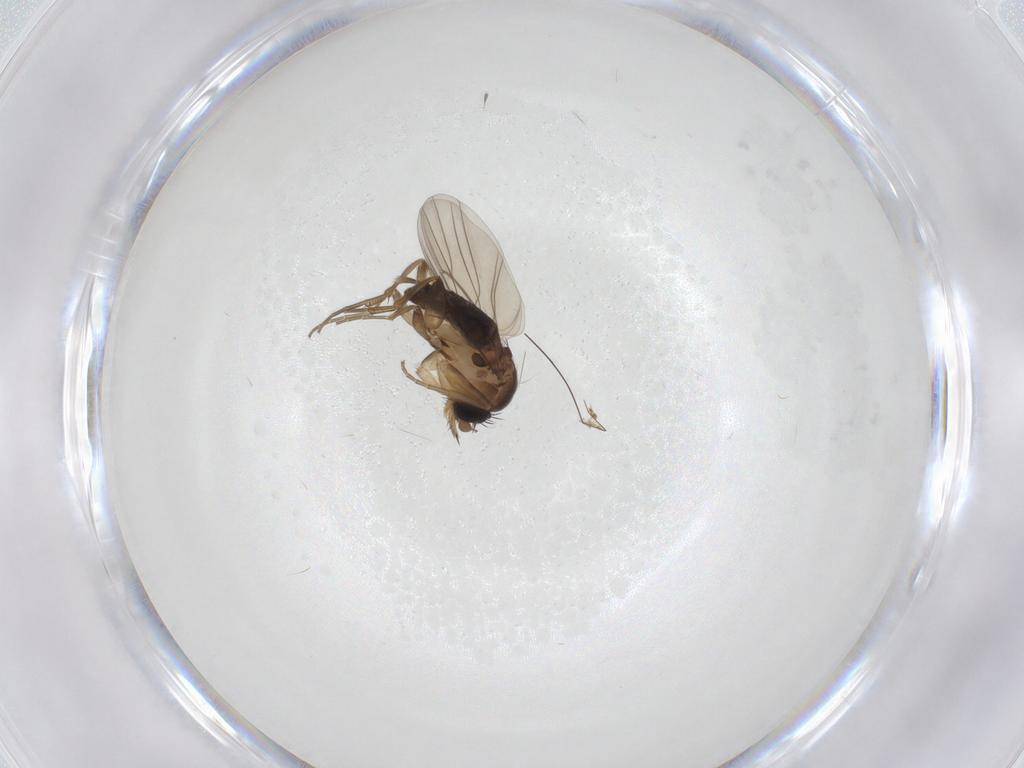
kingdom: Animalia
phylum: Arthropoda
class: Insecta
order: Diptera
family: Phoridae
